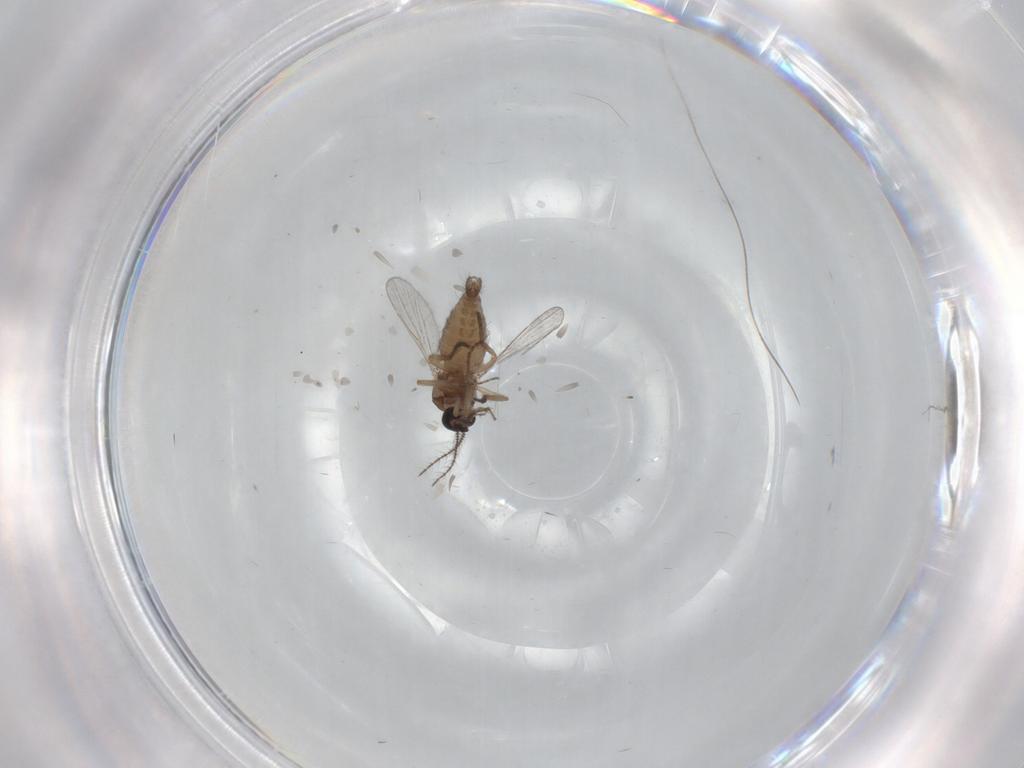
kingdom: Animalia
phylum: Arthropoda
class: Insecta
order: Diptera
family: Ceratopogonidae
